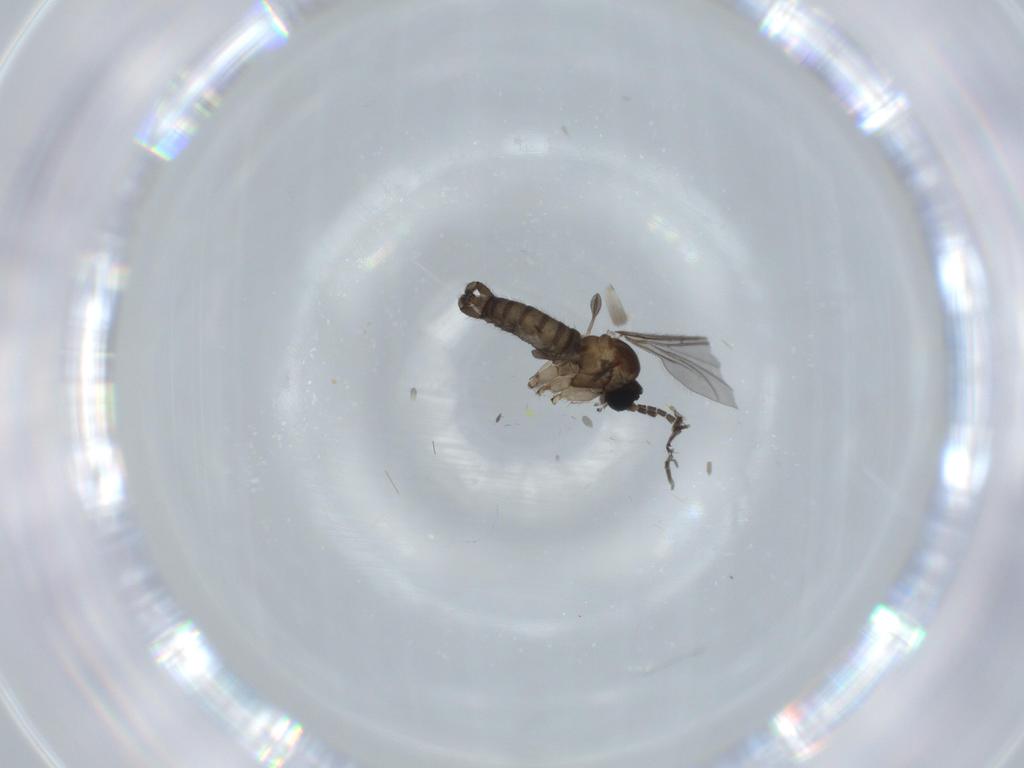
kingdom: Animalia
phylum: Arthropoda
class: Insecta
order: Diptera
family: Sciaridae
